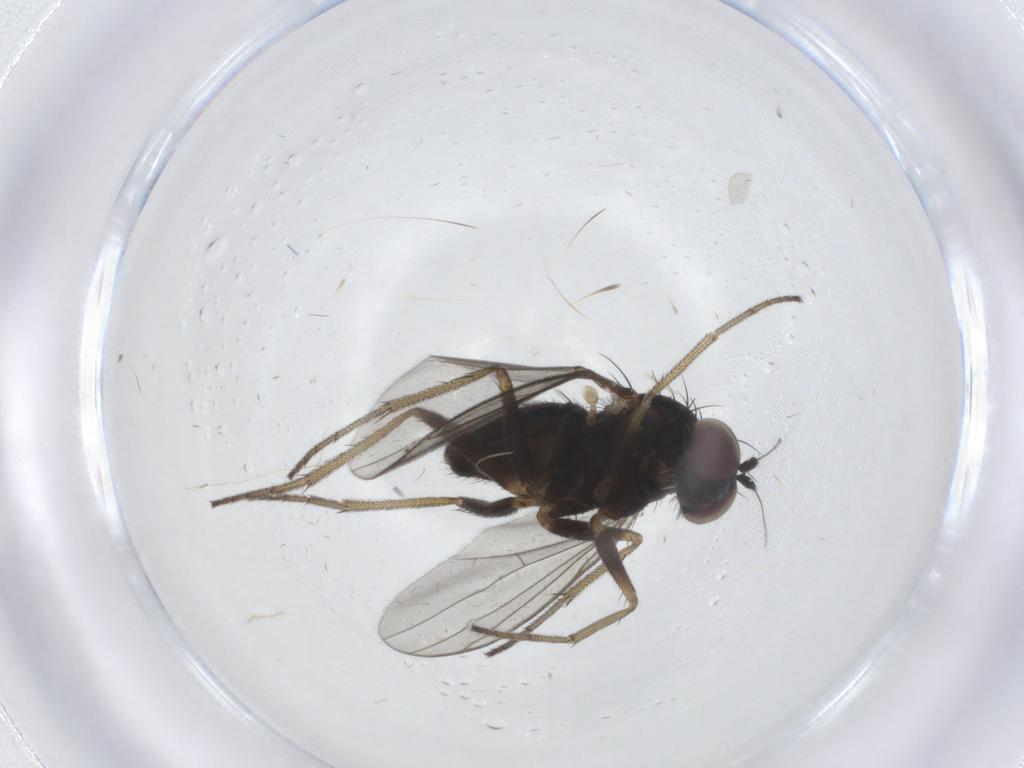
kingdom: Animalia
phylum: Arthropoda
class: Insecta
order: Diptera
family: Dolichopodidae
